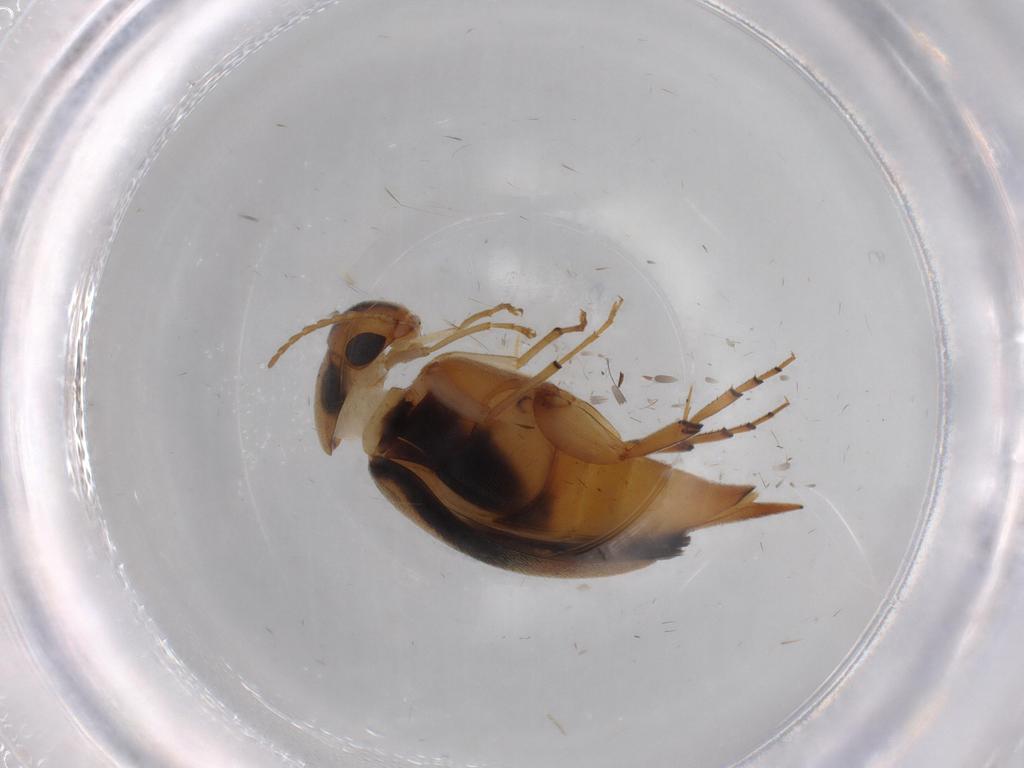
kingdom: Animalia
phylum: Arthropoda
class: Insecta
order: Coleoptera
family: Mordellidae
